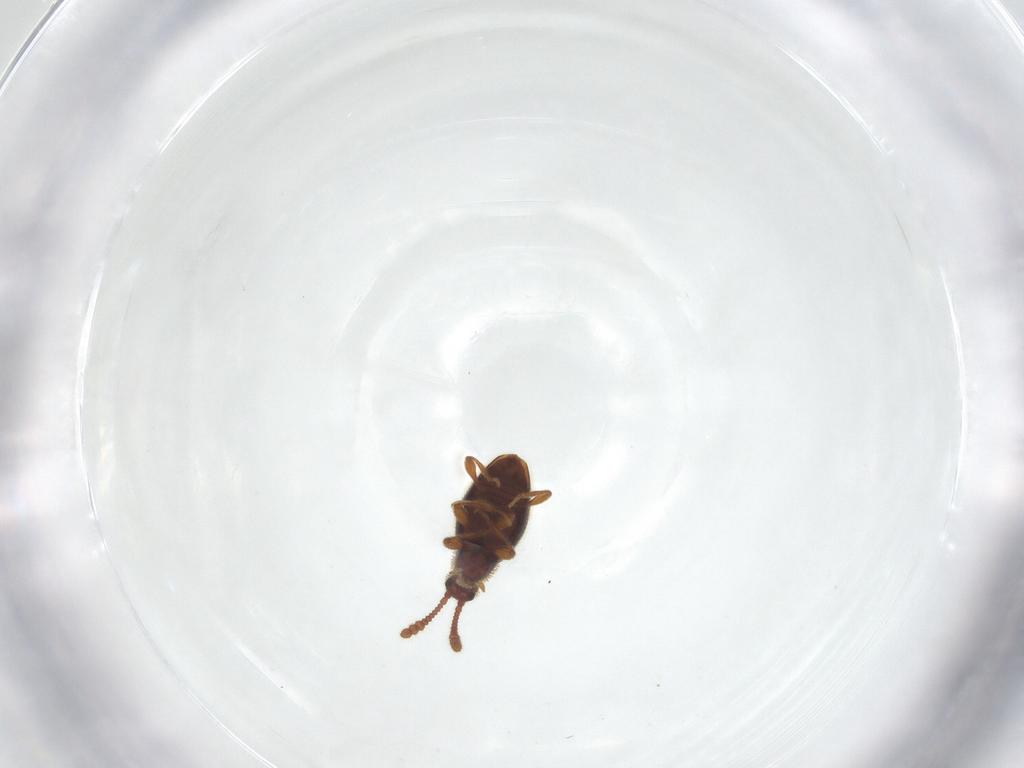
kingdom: Animalia
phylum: Arthropoda
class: Insecta
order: Coleoptera
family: Staphylinidae
